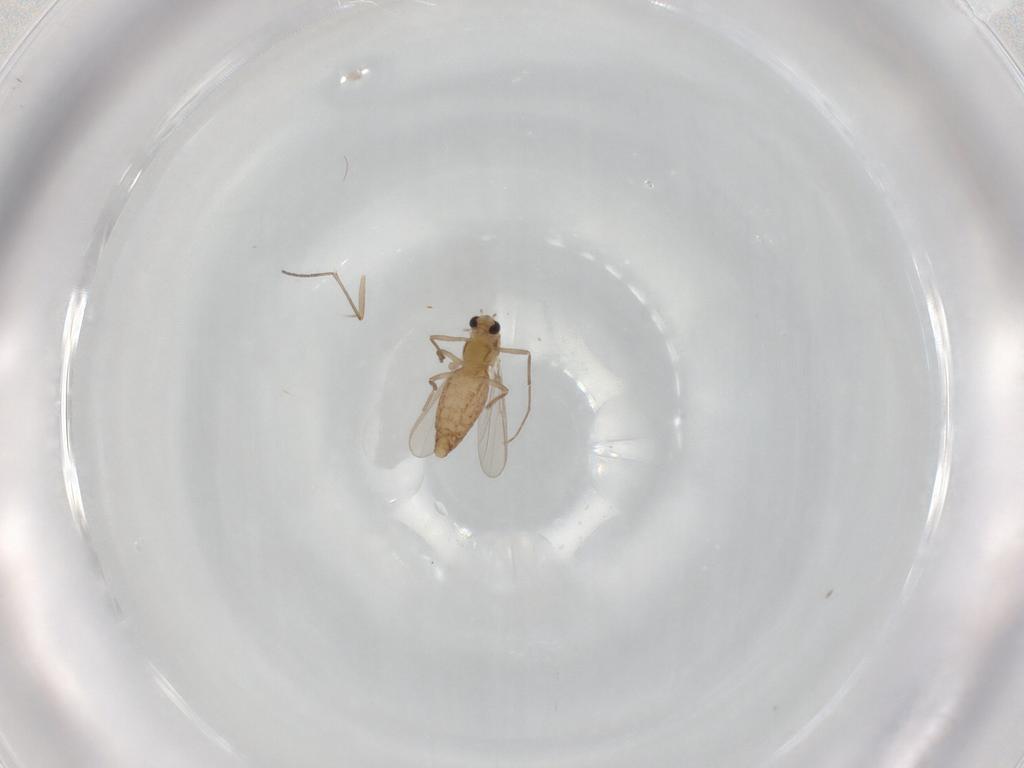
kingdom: Animalia
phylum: Arthropoda
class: Insecta
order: Diptera
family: Chironomidae
